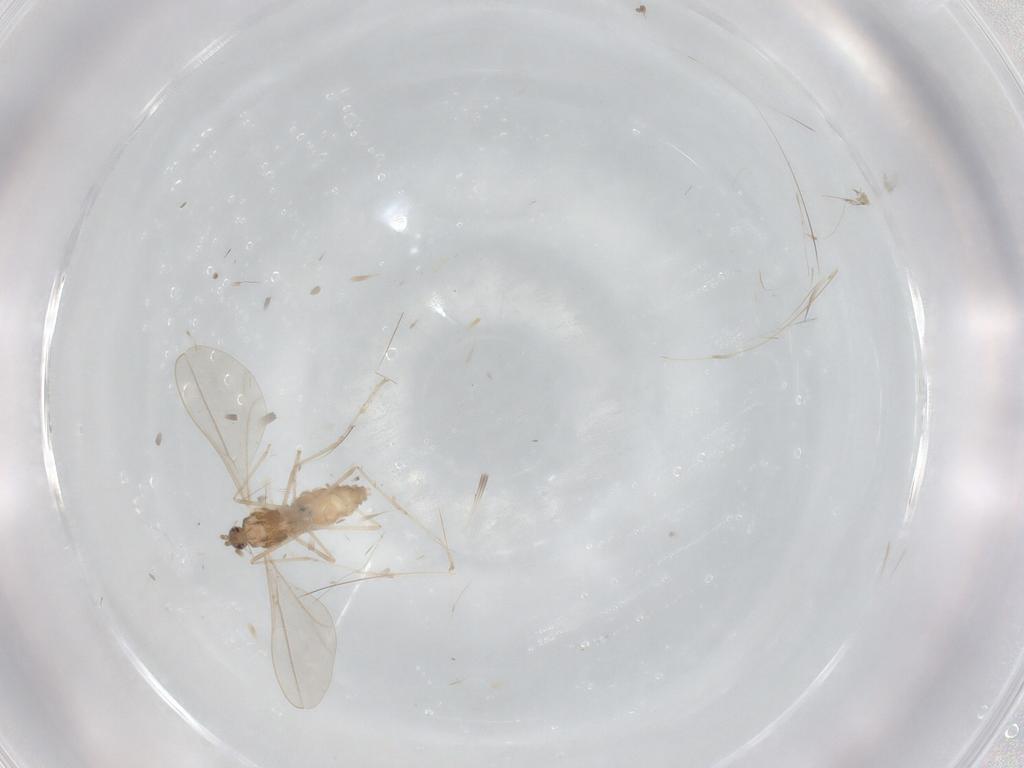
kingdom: Animalia
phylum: Arthropoda
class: Insecta
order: Diptera
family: Cecidomyiidae
